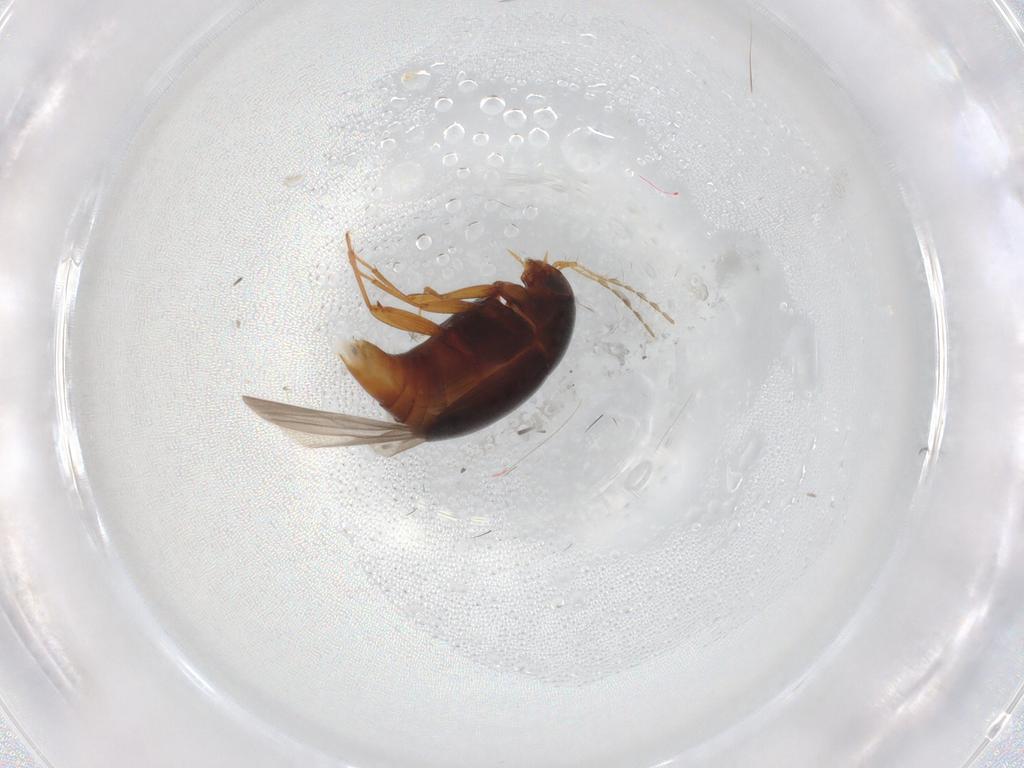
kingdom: Animalia
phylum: Arthropoda
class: Insecta
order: Coleoptera
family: Staphylinidae
